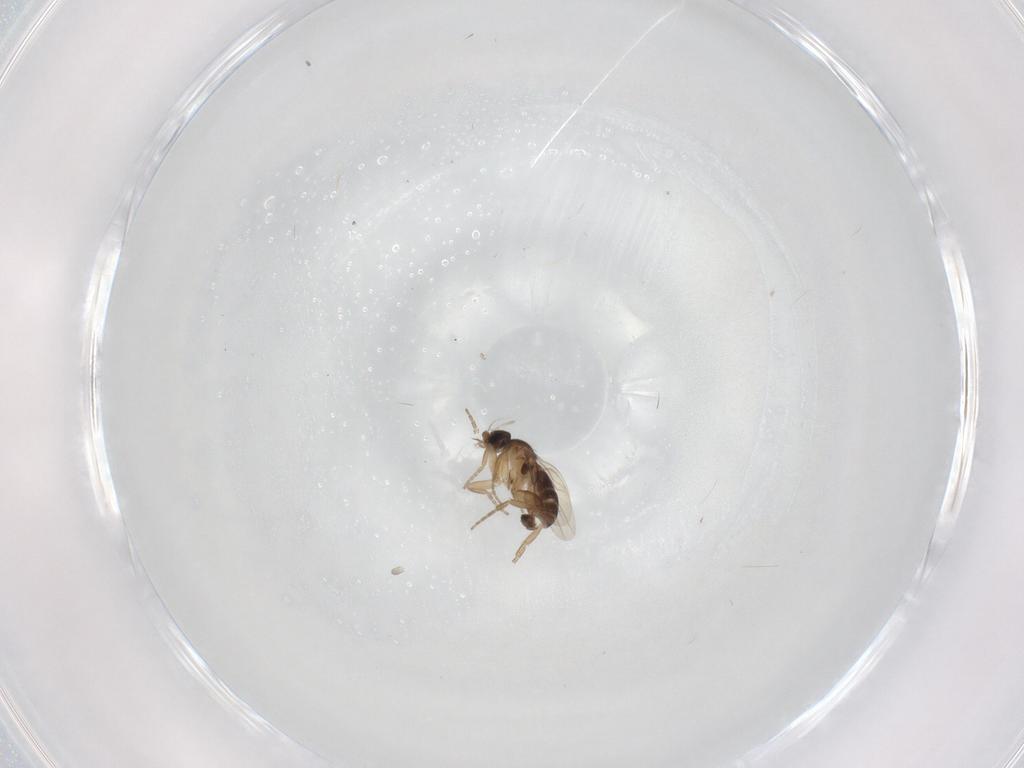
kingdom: Animalia
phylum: Arthropoda
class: Insecta
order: Diptera
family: Phoridae
